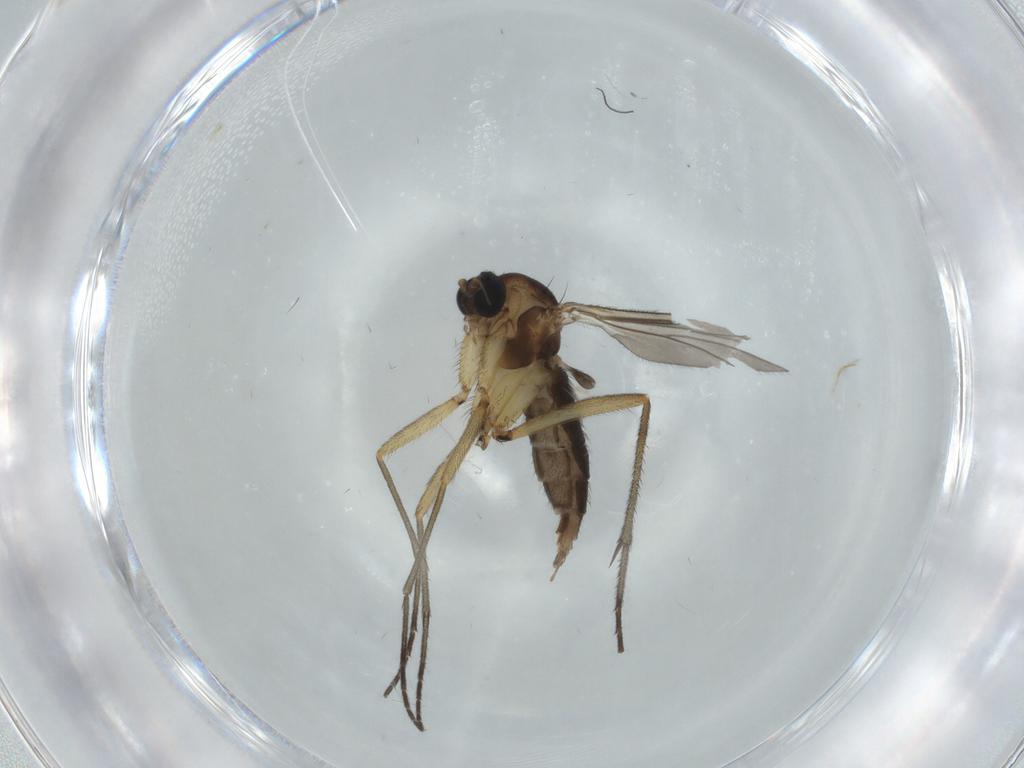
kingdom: Animalia
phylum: Arthropoda
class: Insecta
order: Diptera
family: Sciaridae
